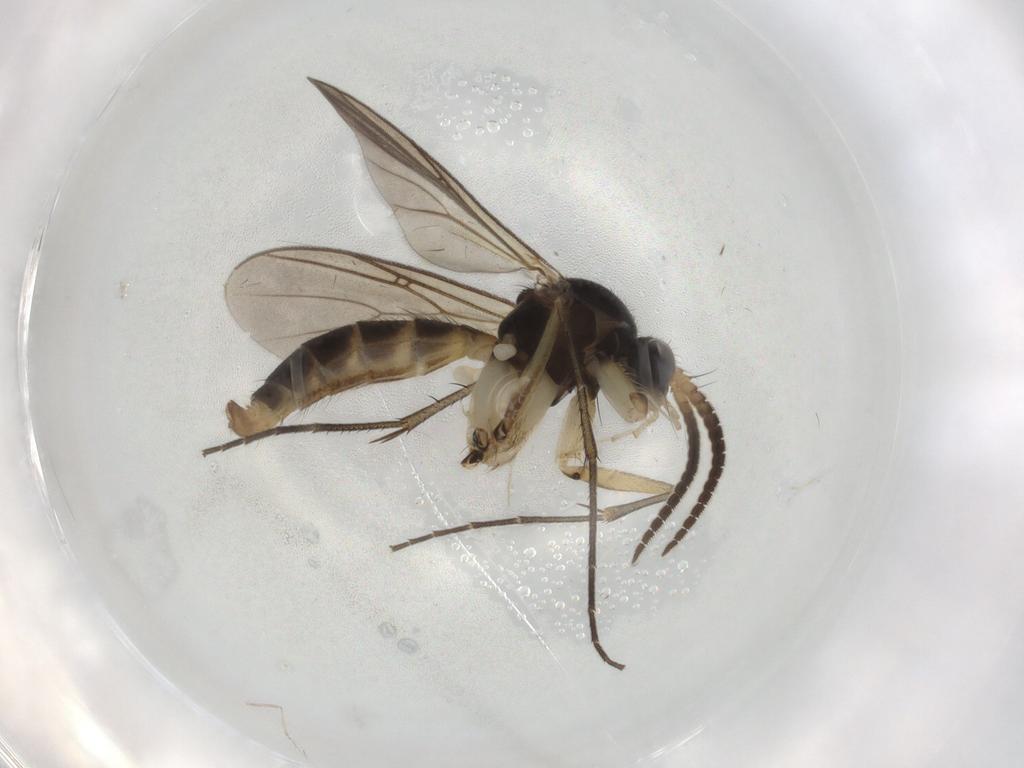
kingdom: Animalia
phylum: Arthropoda
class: Insecta
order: Diptera
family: Mycetophilidae
